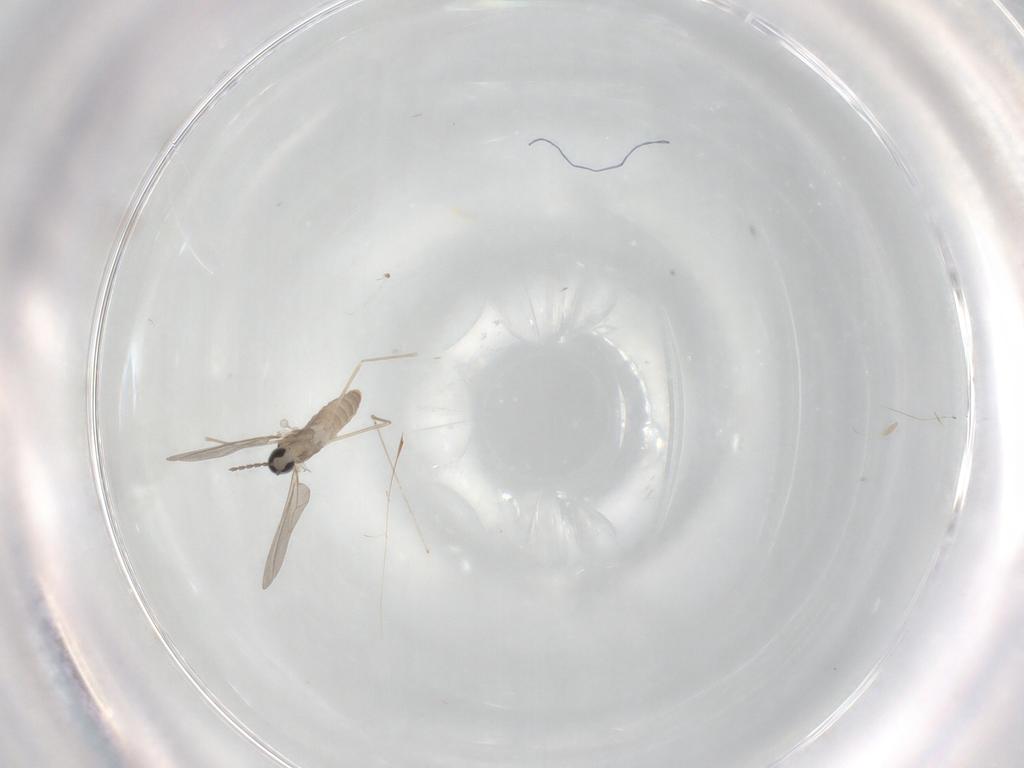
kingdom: Animalia
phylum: Arthropoda
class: Insecta
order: Diptera
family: Cecidomyiidae
